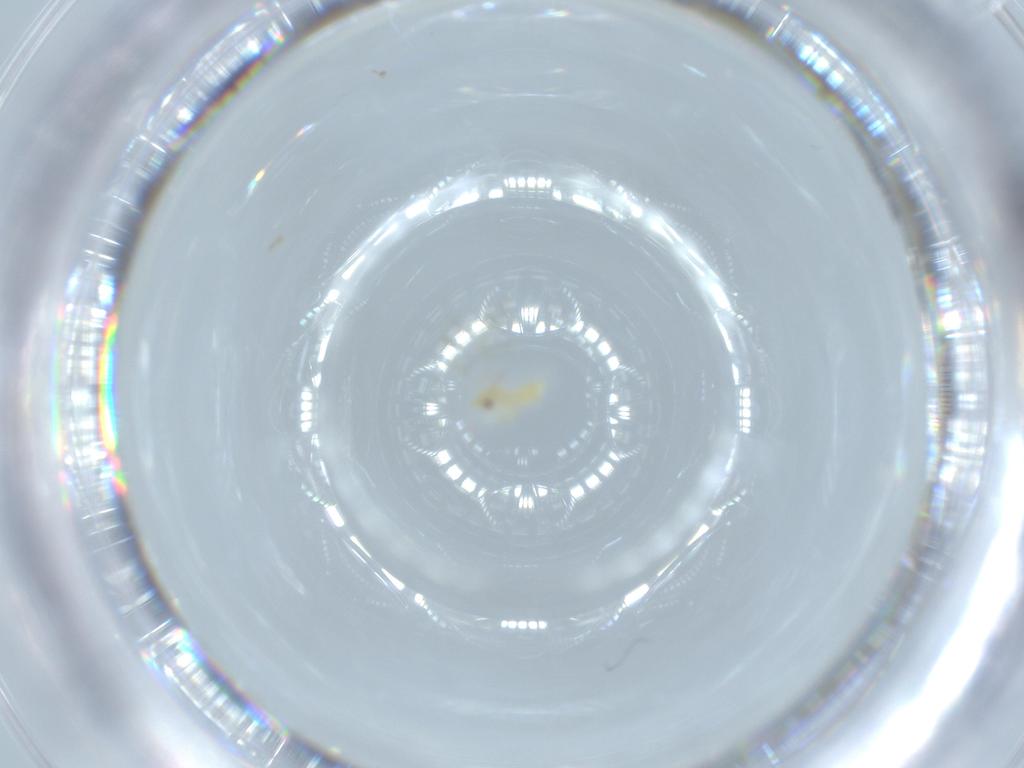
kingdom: Animalia
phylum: Arthropoda
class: Insecta
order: Hemiptera
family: Aleyrodidae
